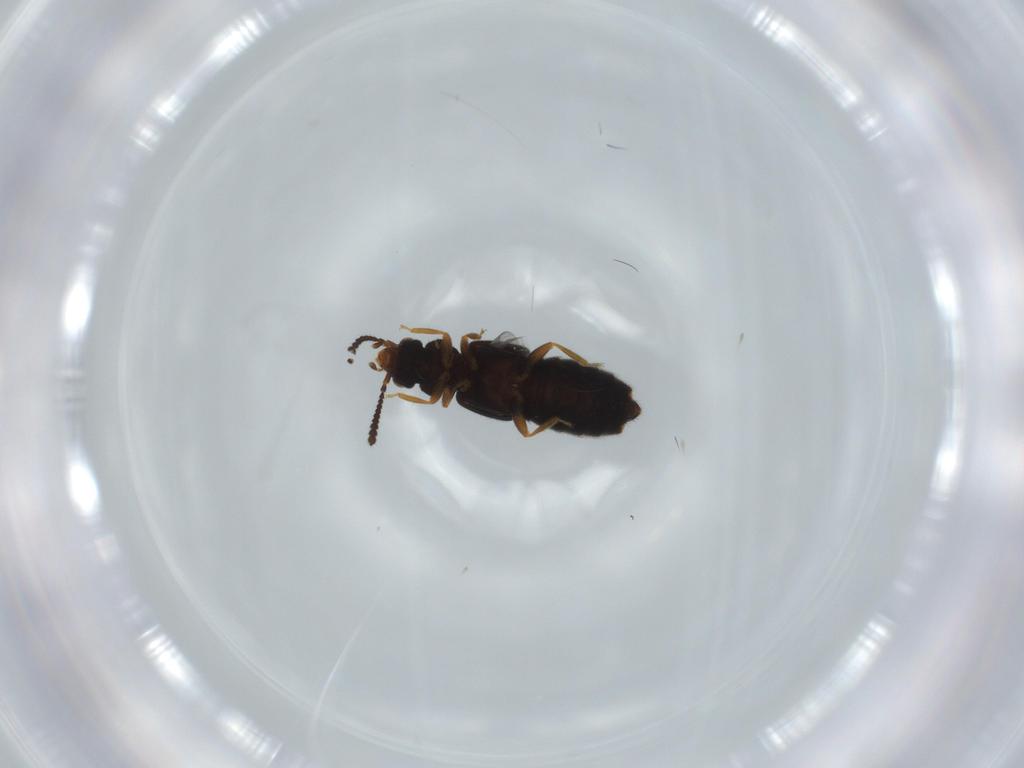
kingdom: Animalia
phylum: Arthropoda
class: Insecta
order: Coleoptera
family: Staphylinidae
